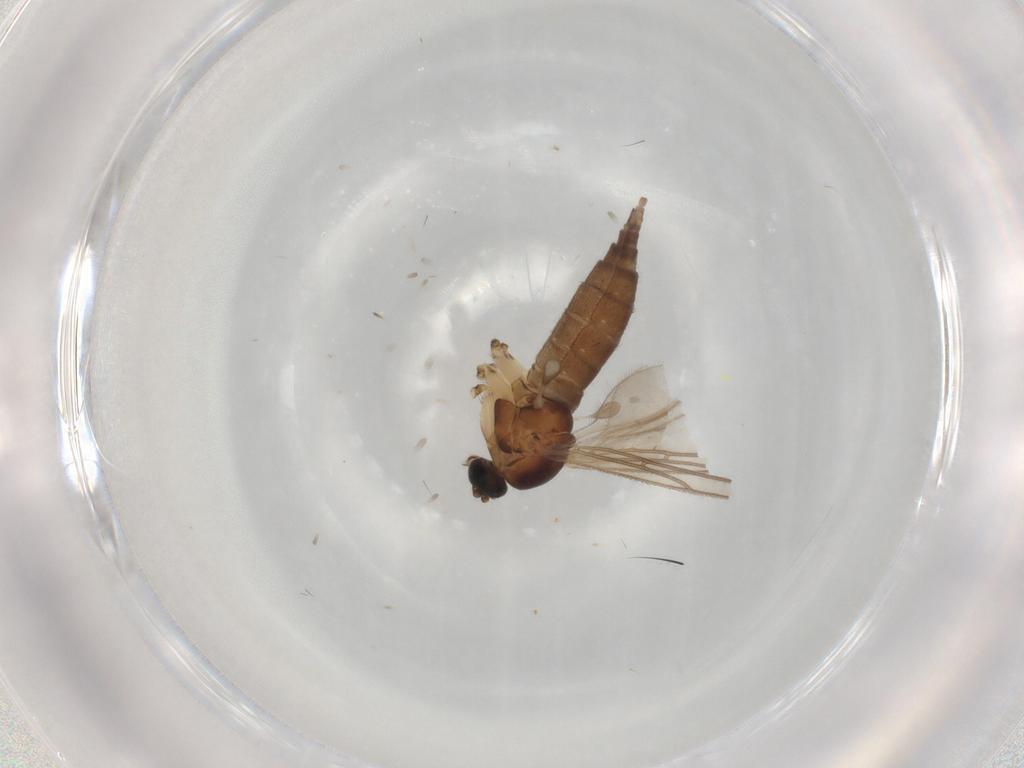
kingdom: Animalia
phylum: Arthropoda
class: Insecta
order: Diptera
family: Sciaridae
